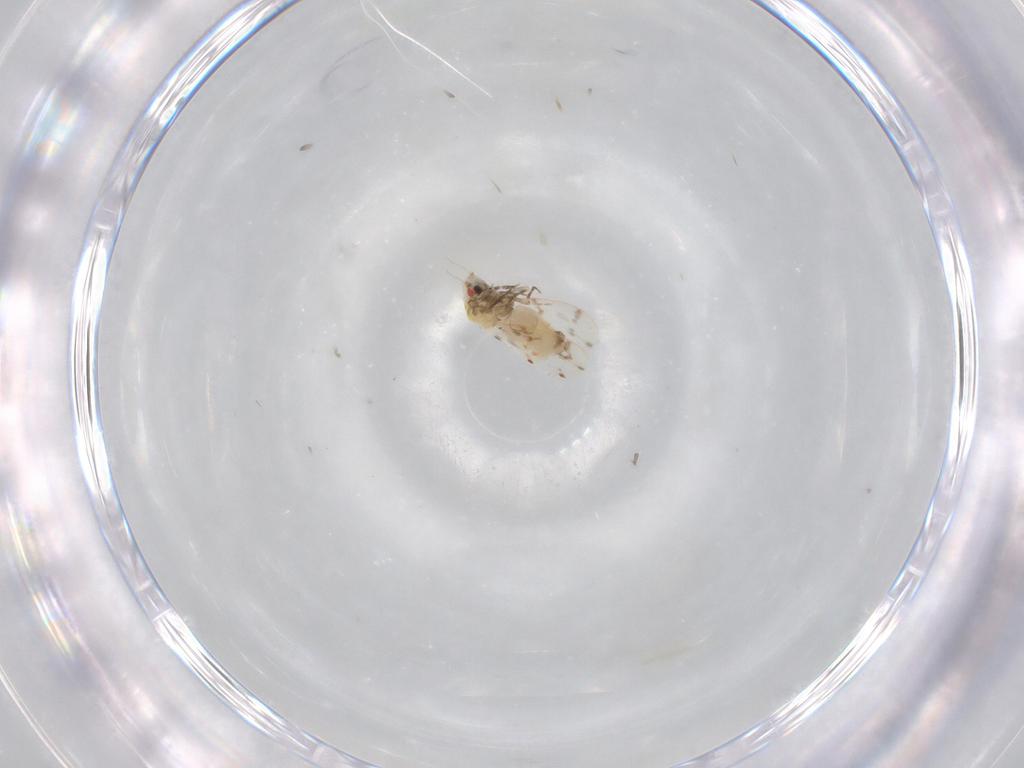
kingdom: Animalia
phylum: Arthropoda
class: Insecta
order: Hemiptera
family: Aleyrodidae
